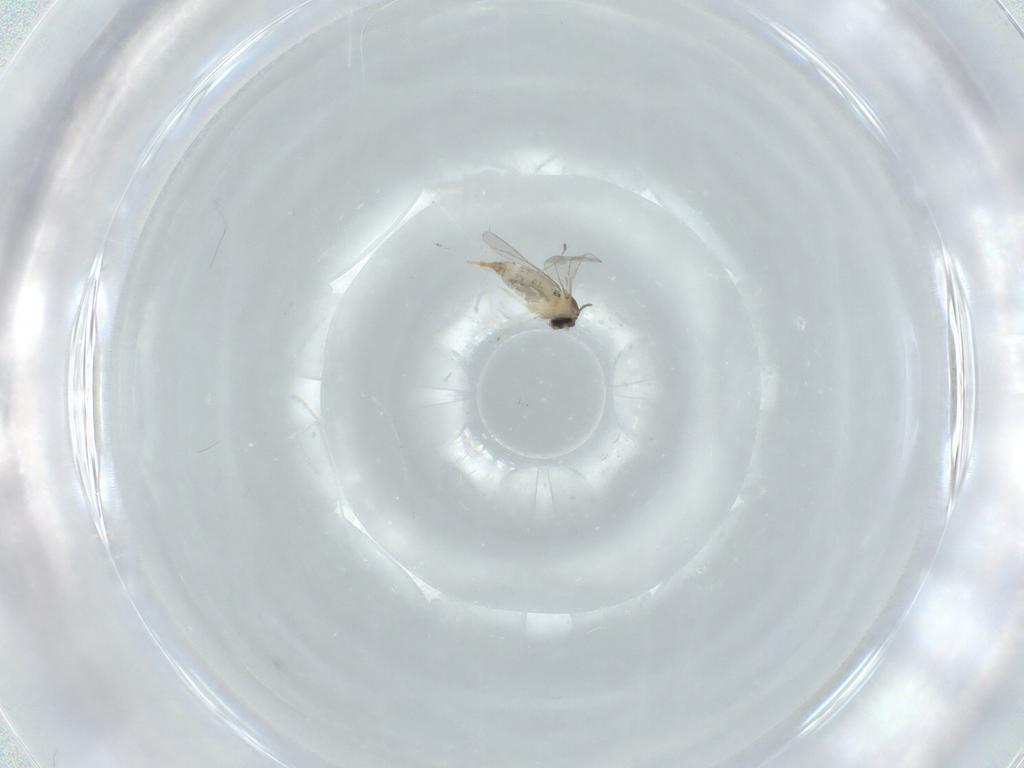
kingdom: Animalia
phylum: Arthropoda
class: Insecta
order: Diptera
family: Cecidomyiidae
